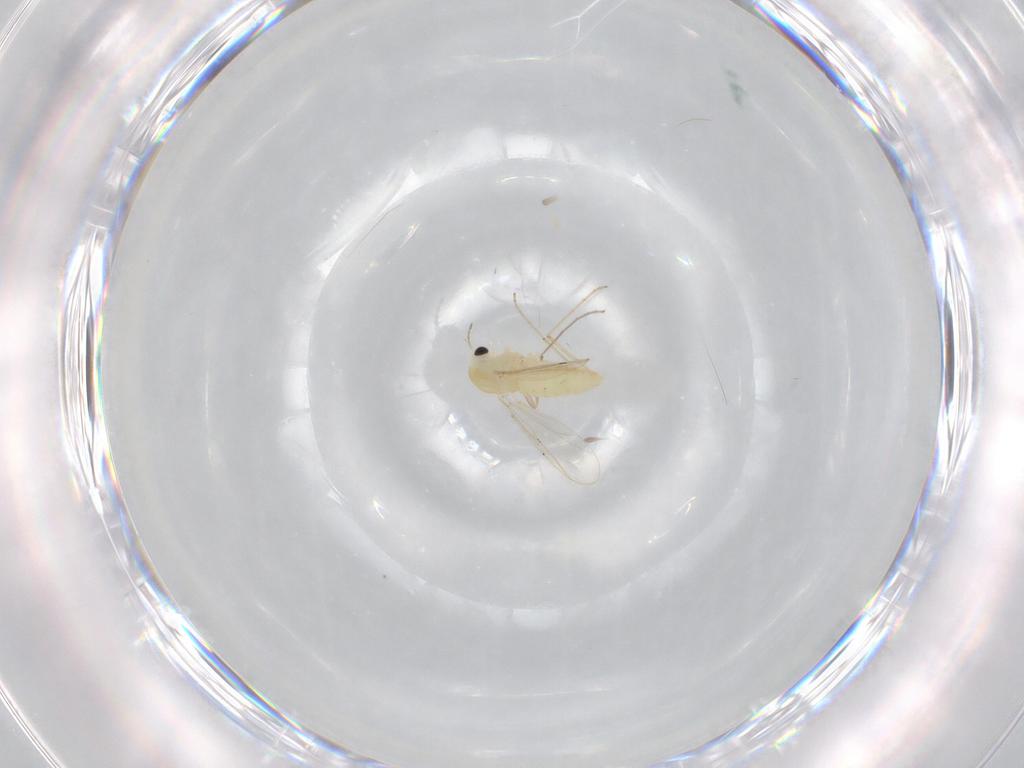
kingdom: Animalia
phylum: Arthropoda
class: Insecta
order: Diptera
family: Chironomidae
